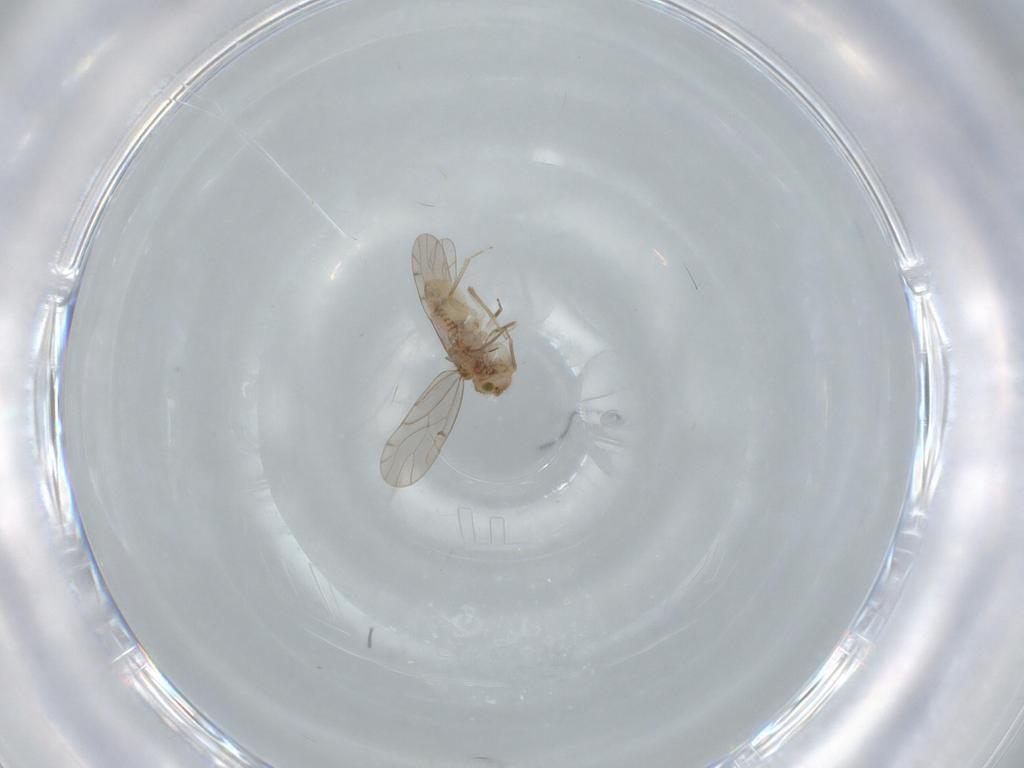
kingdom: Animalia
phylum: Arthropoda
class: Insecta
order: Psocodea
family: Ectopsocidae
